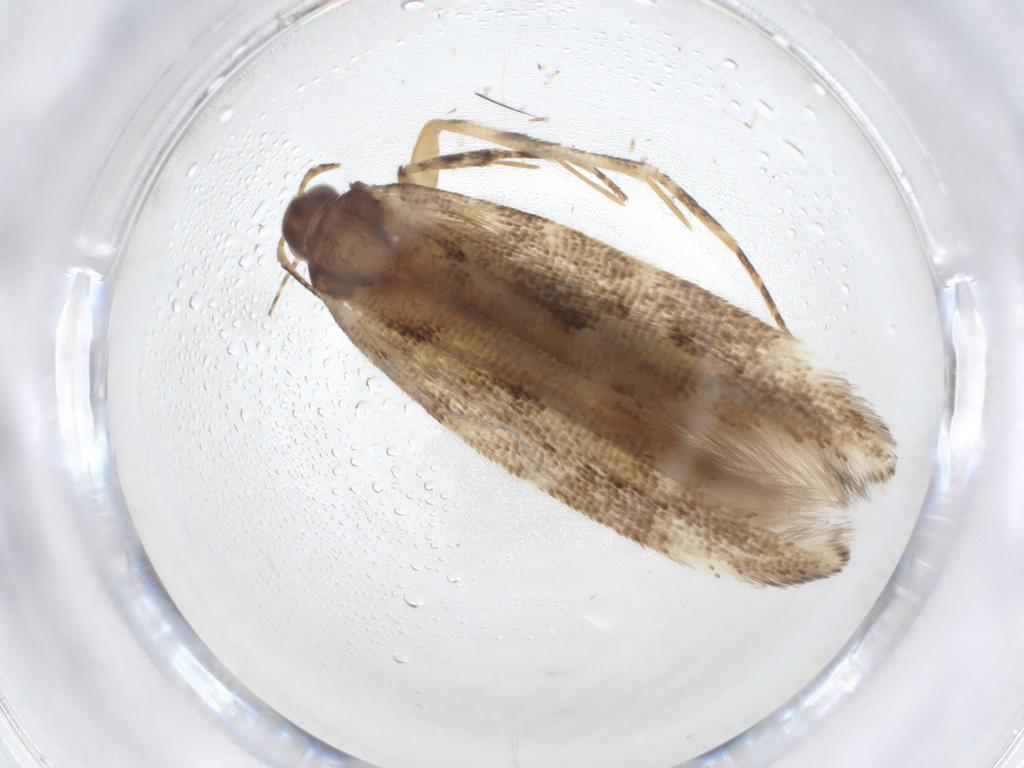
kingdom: Animalia
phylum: Arthropoda
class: Insecta
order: Lepidoptera
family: Gelechiidae
